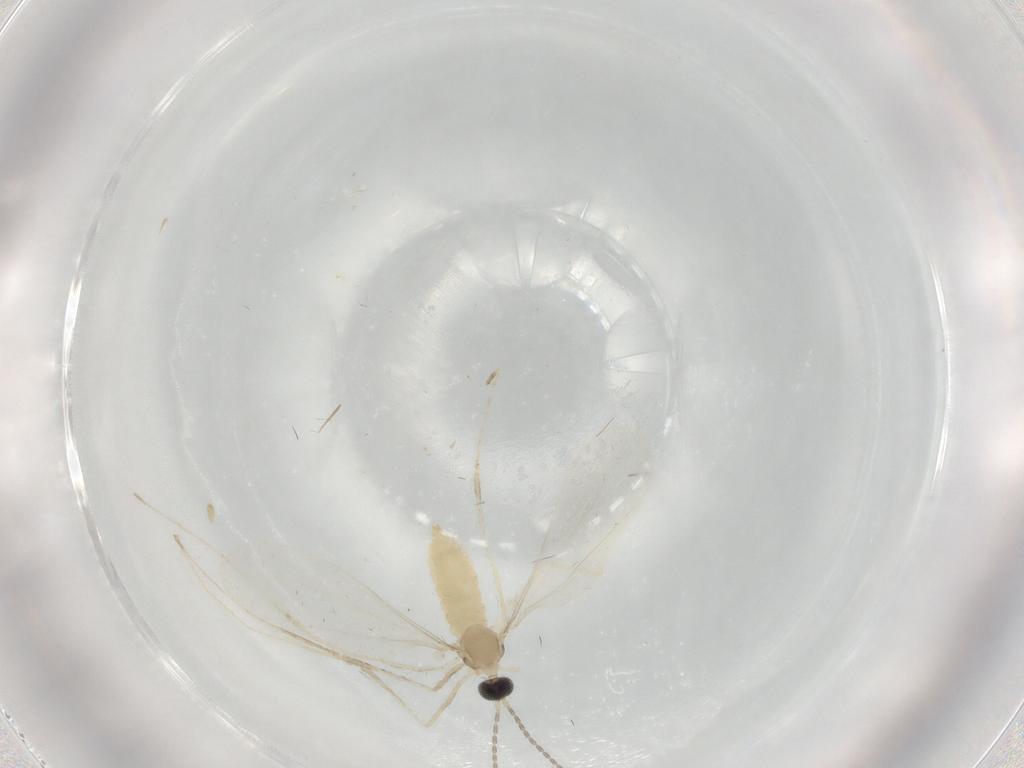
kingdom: Animalia
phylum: Arthropoda
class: Insecta
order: Diptera
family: Cecidomyiidae
